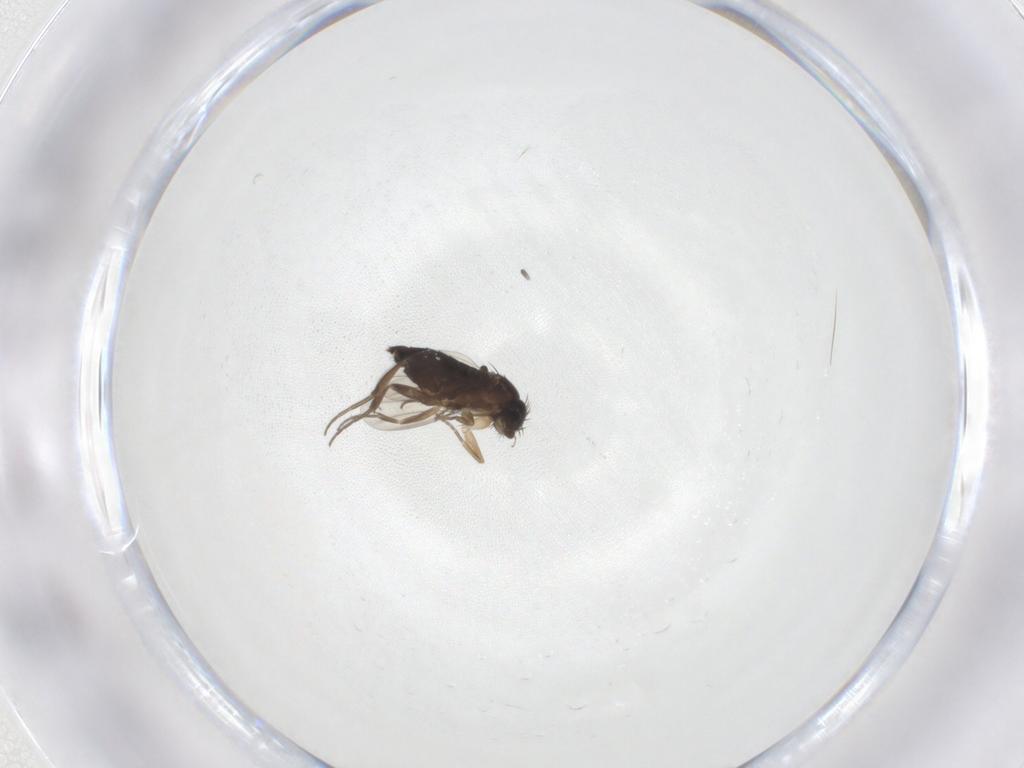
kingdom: Animalia
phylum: Arthropoda
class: Insecta
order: Diptera
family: Phoridae
